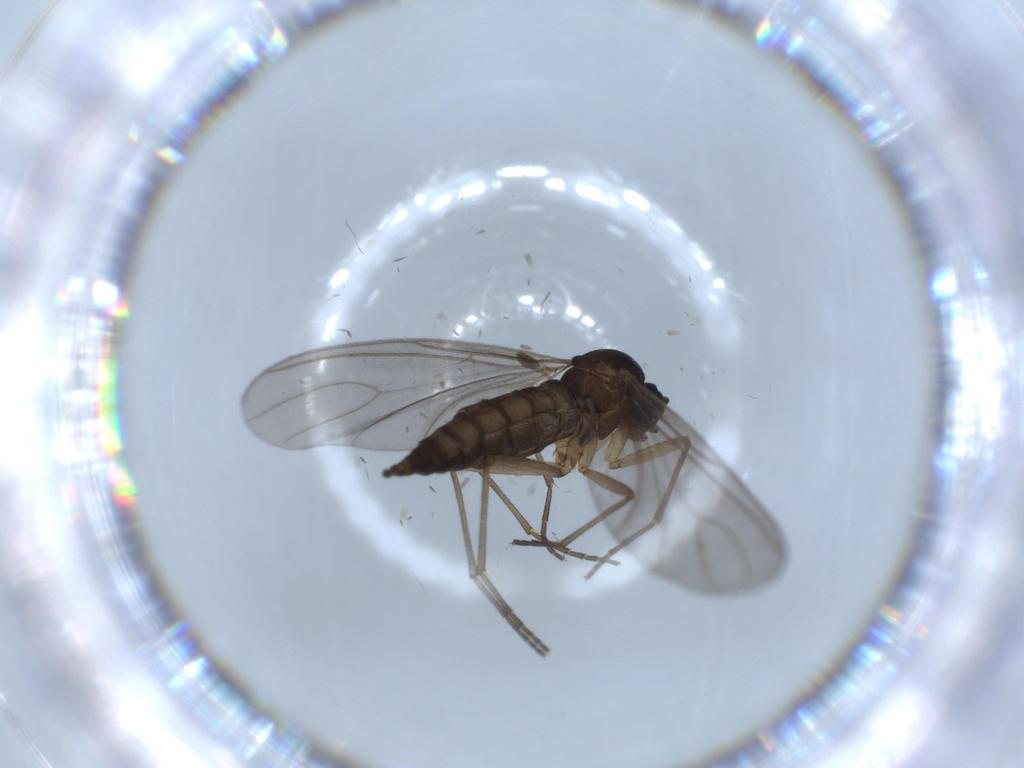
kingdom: Animalia
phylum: Arthropoda
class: Insecta
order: Diptera
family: Sciaridae
